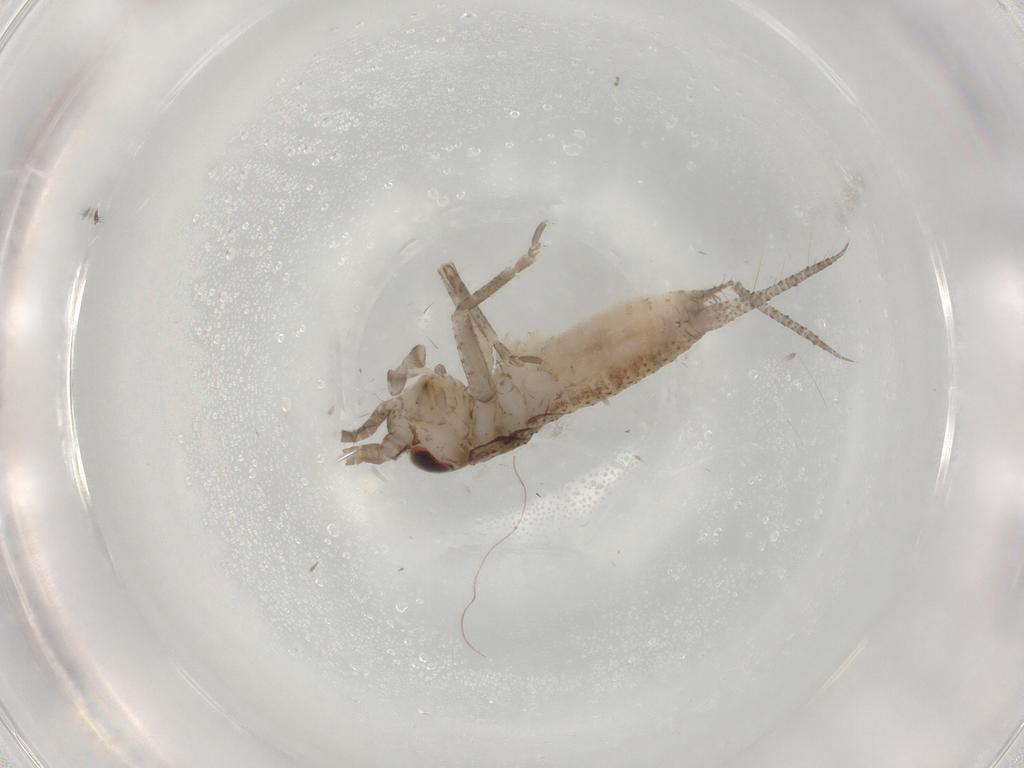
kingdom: Animalia
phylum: Arthropoda
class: Insecta
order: Orthoptera
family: Gryllidae
